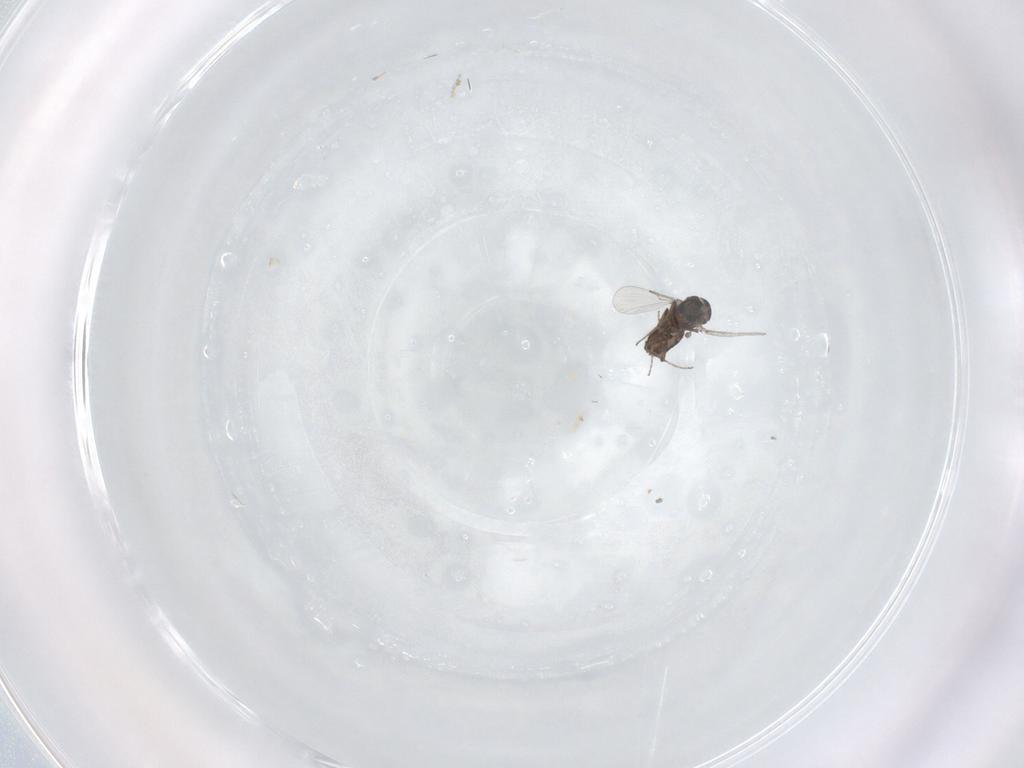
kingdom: Animalia
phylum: Arthropoda
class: Insecta
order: Diptera
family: Ceratopogonidae
